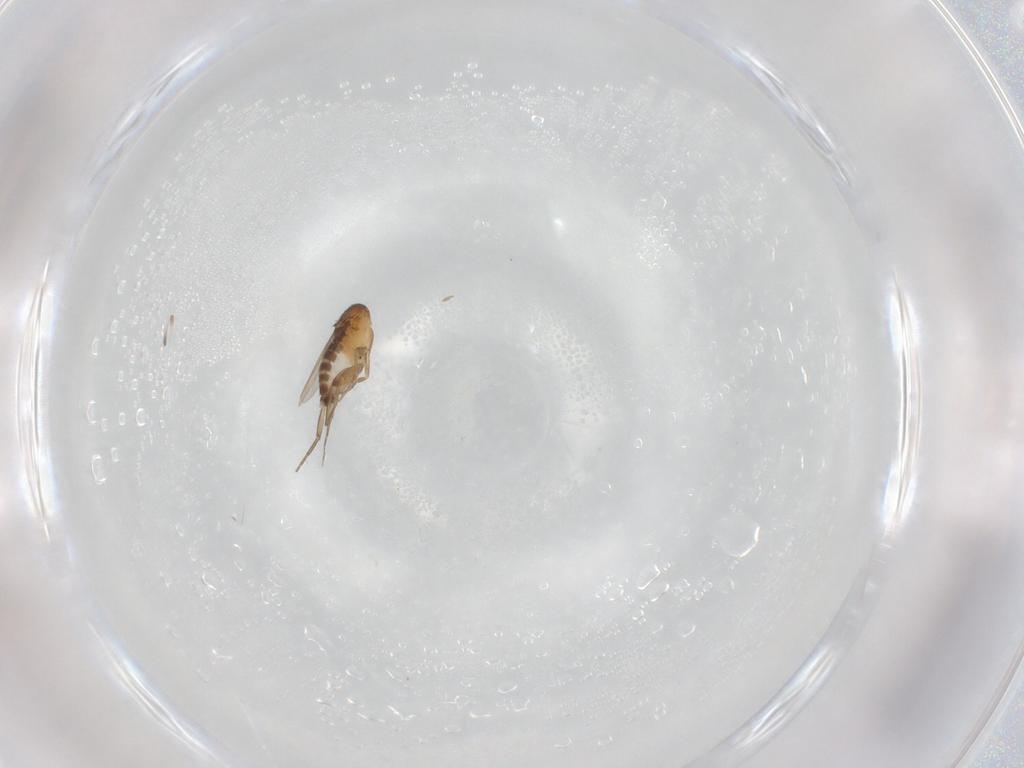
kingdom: Animalia
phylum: Arthropoda
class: Insecta
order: Diptera
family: Phoridae
